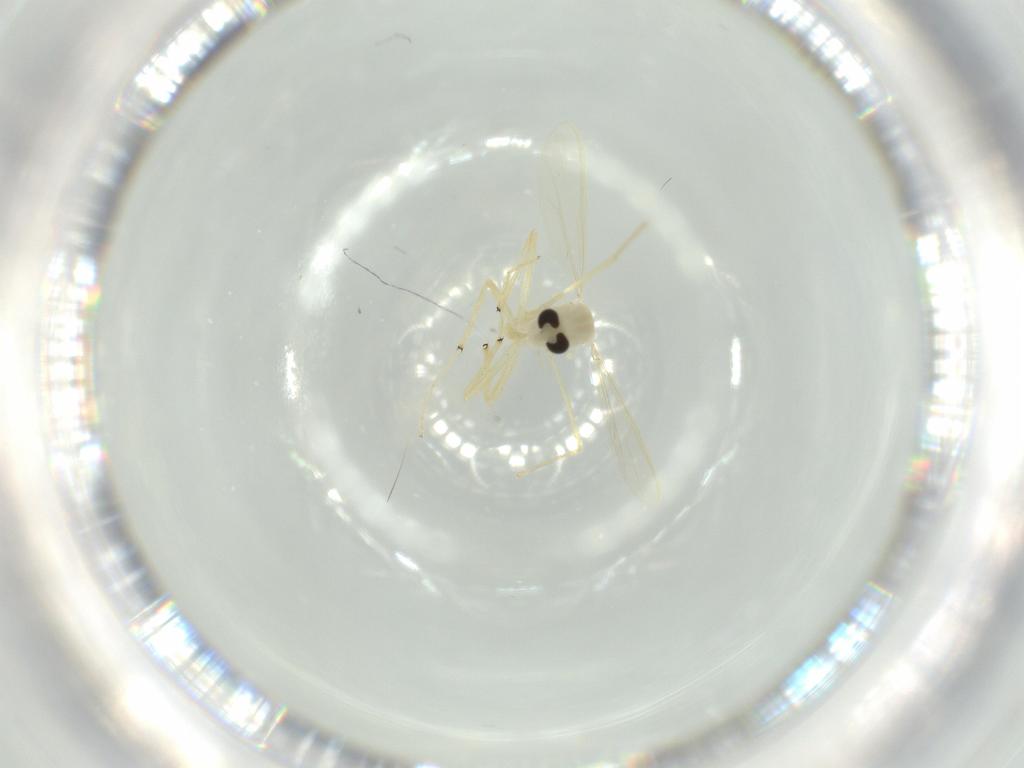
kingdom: Animalia
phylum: Arthropoda
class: Insecta
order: Diptera
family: Chironomidae
